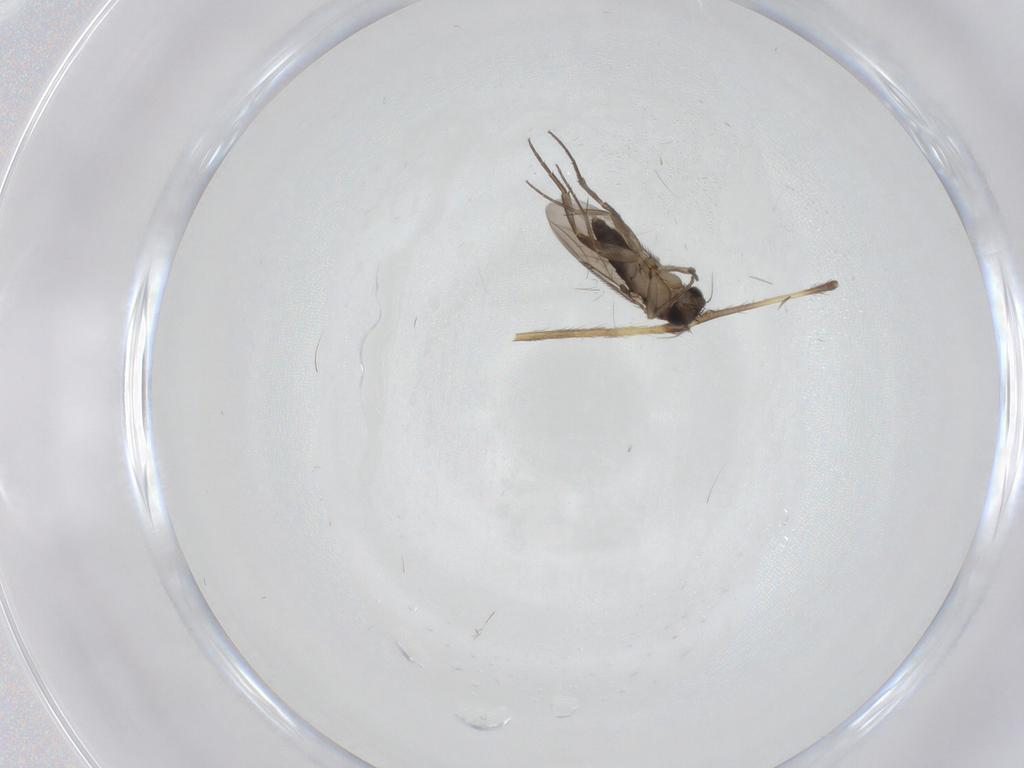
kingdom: Animalia
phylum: Arthropoda
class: Insecta
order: Diptera
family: Phoridae
